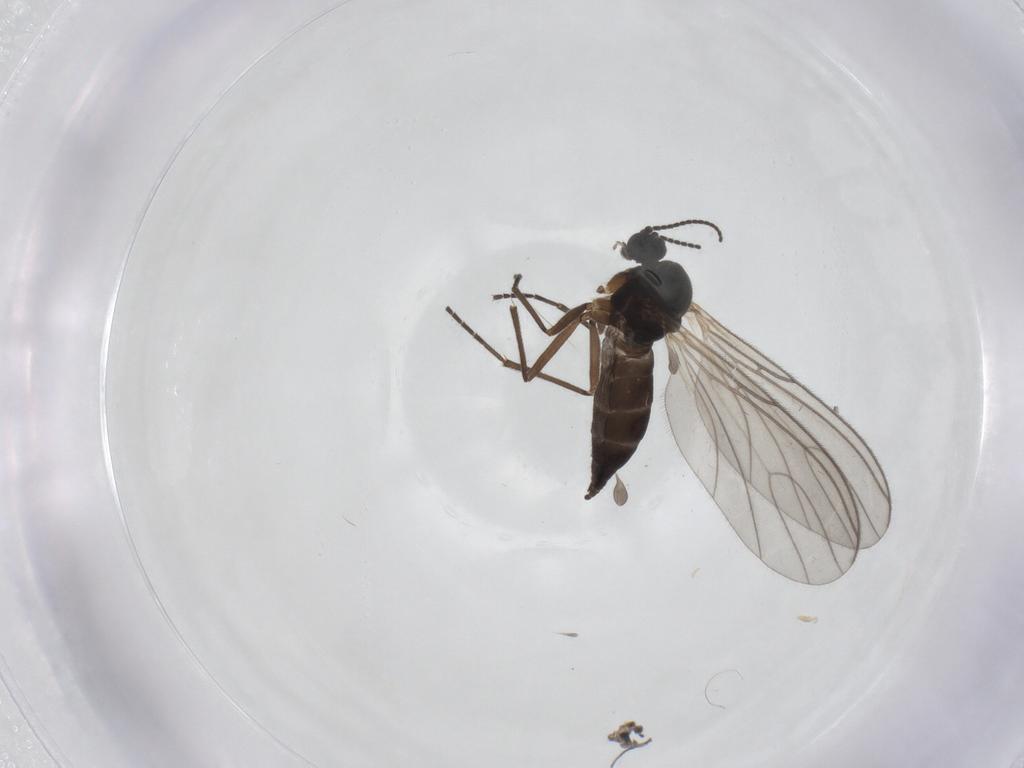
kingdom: Animalia
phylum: Arthropoda
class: Insecta
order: Diptera
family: Sciaridae
